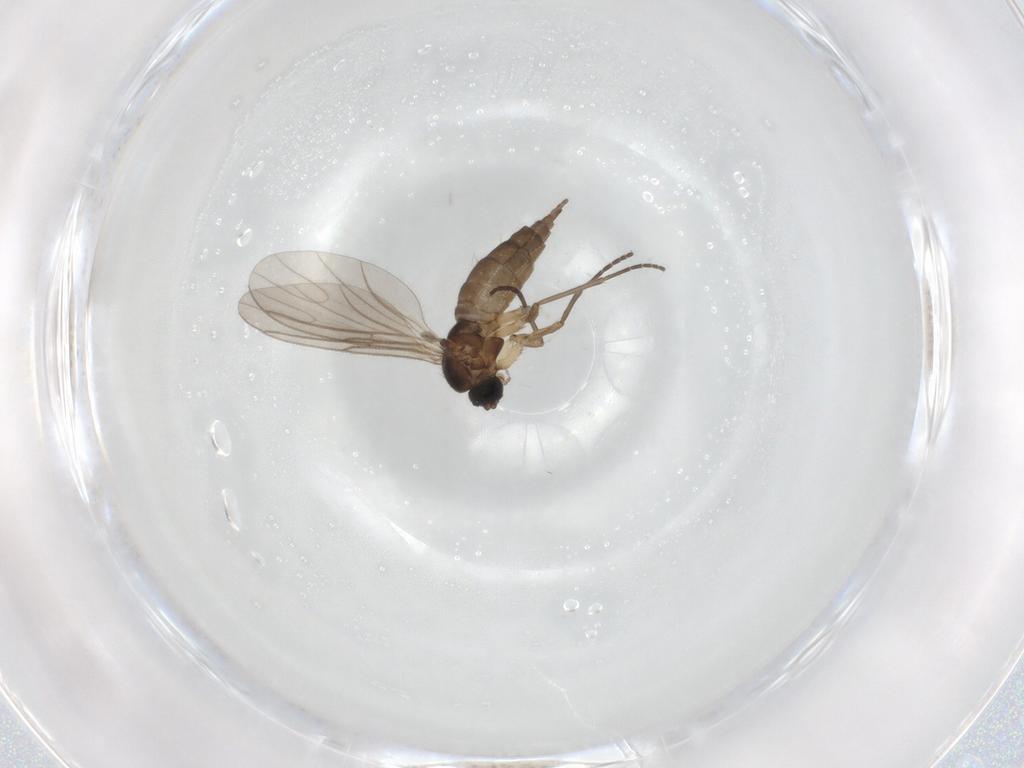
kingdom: Animalia
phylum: Arthropoda
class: Insecta
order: Diptera
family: Sciaridae
